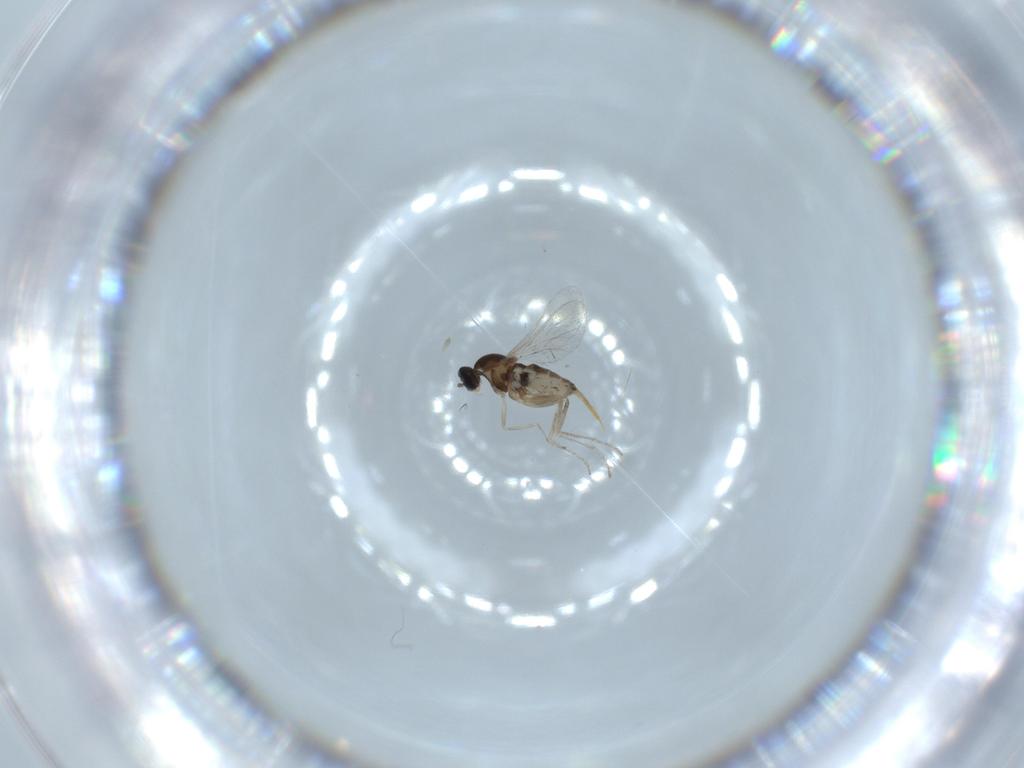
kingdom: Animalia
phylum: Arthropoda
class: Insecta
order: Diptera
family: Cecidomyiidae
